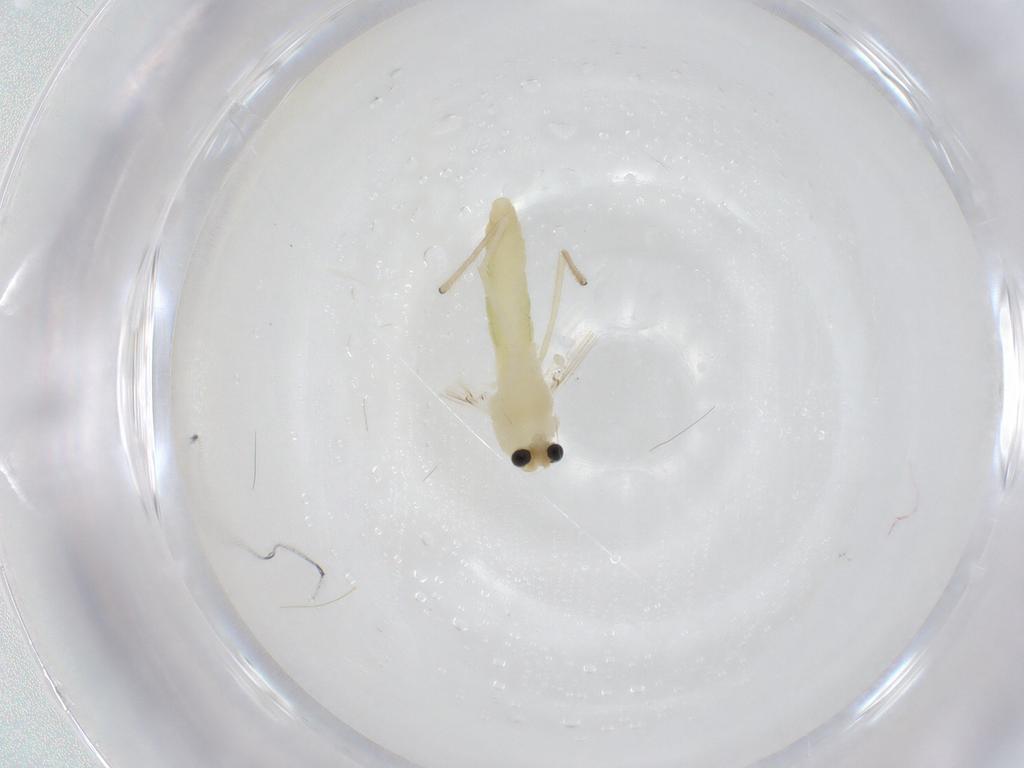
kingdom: Animalia
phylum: Arthropoda
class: Insecta
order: Diptera
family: Chironomidae
